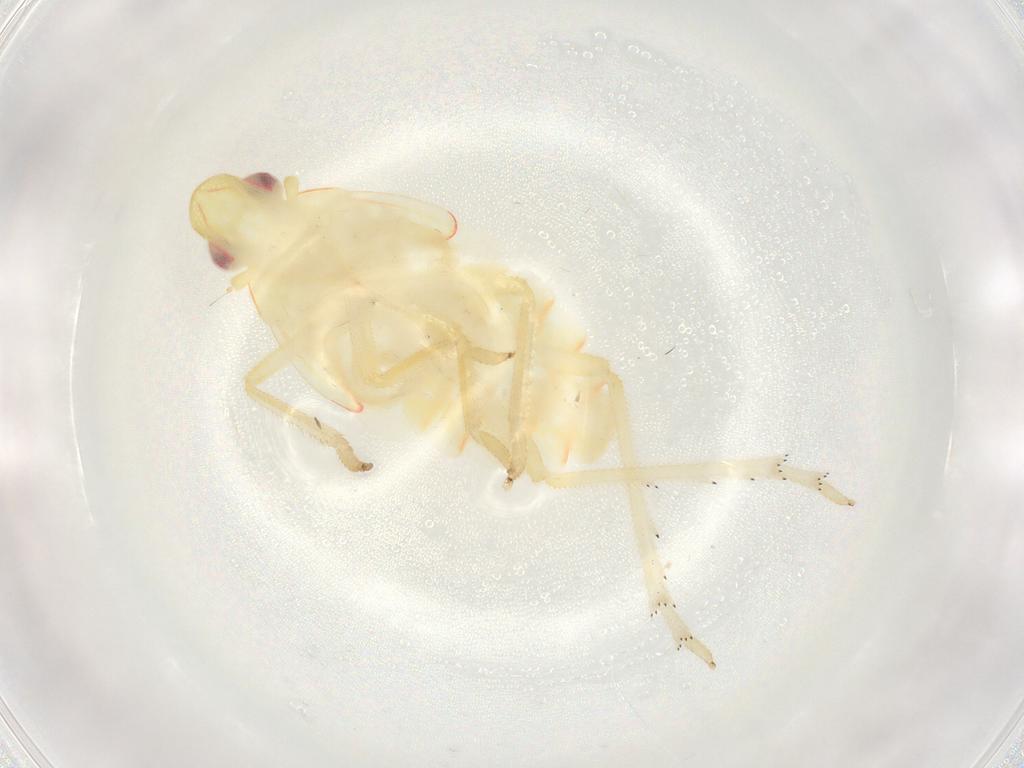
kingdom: Animalia
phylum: Arthropoda
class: Insecta
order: Hemiptera
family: Fulgoroidea_incertae_sedis
